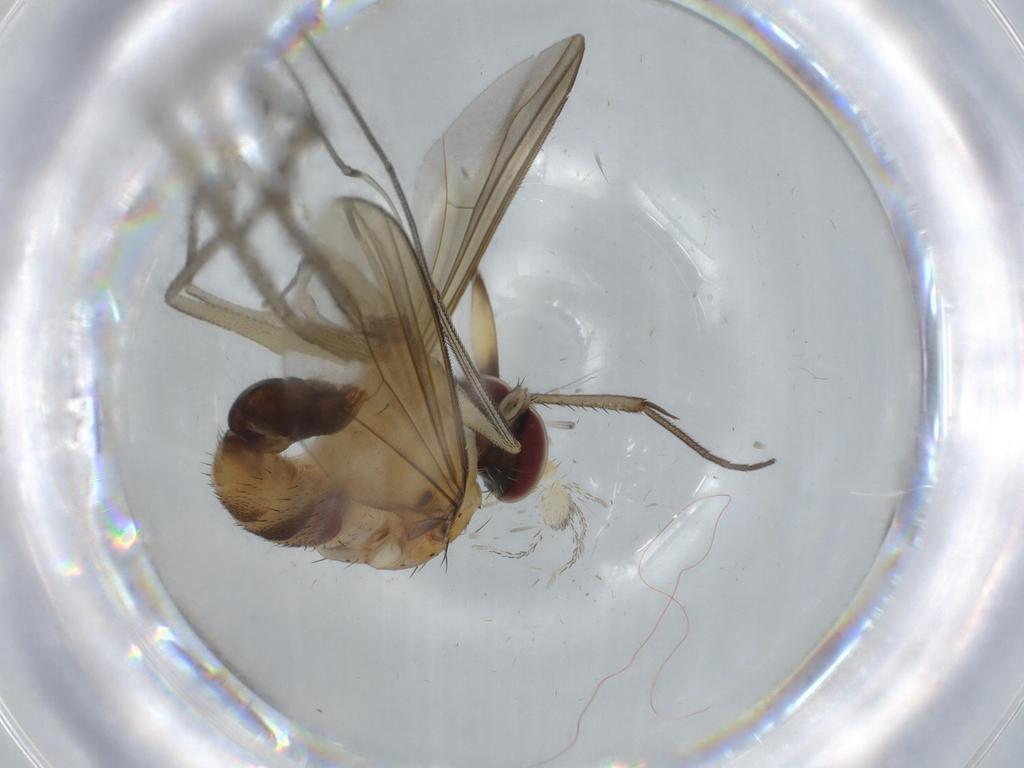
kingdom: Animalia
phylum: Arthropoda
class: Insecta
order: Diptera
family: Dolichopodidae
